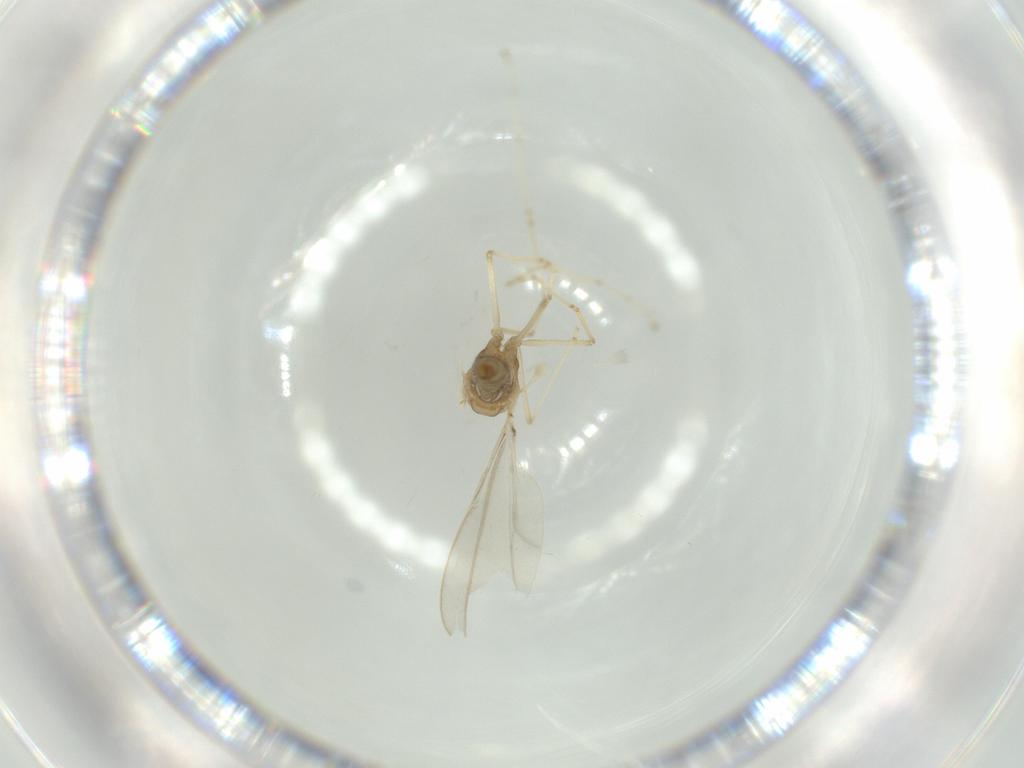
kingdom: Animalia
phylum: Arthropoda
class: Insecta
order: Diptera
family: Cecidomyiidae
